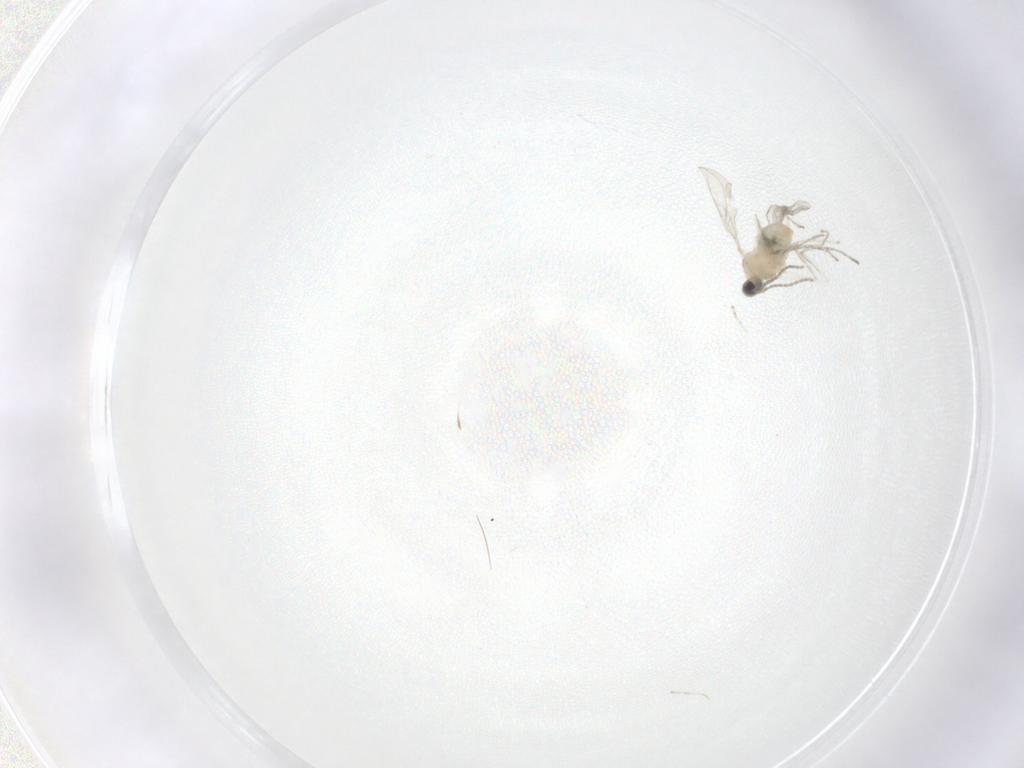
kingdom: Animalia
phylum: Arthropoda
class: Insecta
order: Diptera
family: Cecidomyiidae
